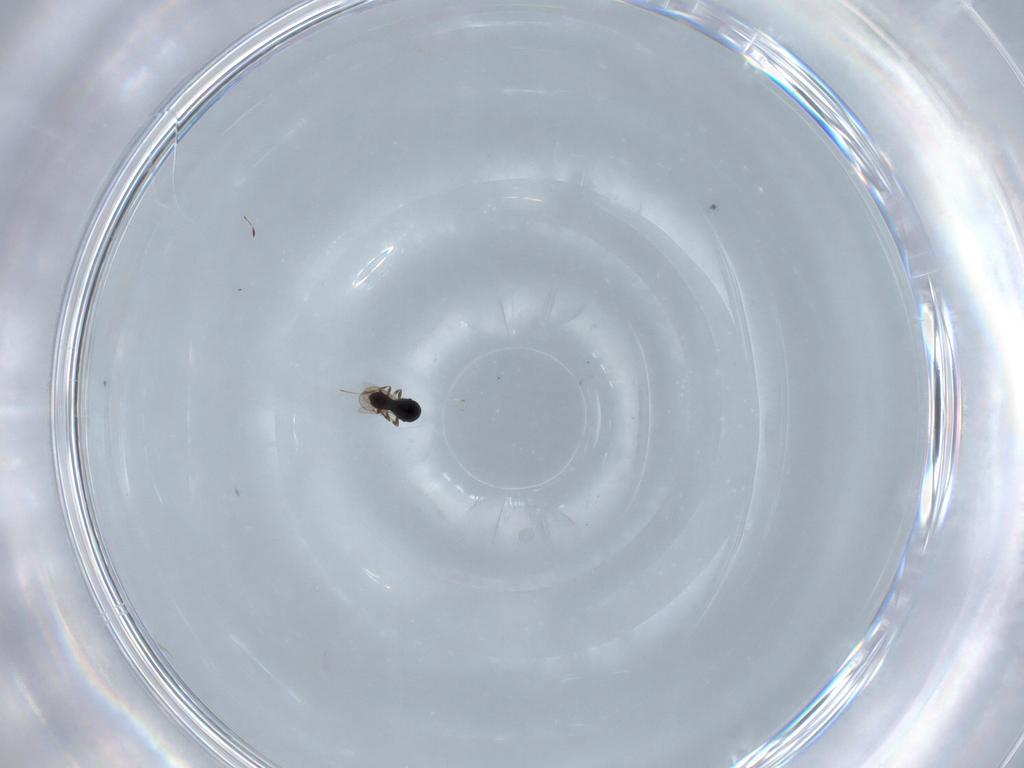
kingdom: Animalia
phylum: Arthropoda
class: Insecta
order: Hymenoptera
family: Scelionidae
